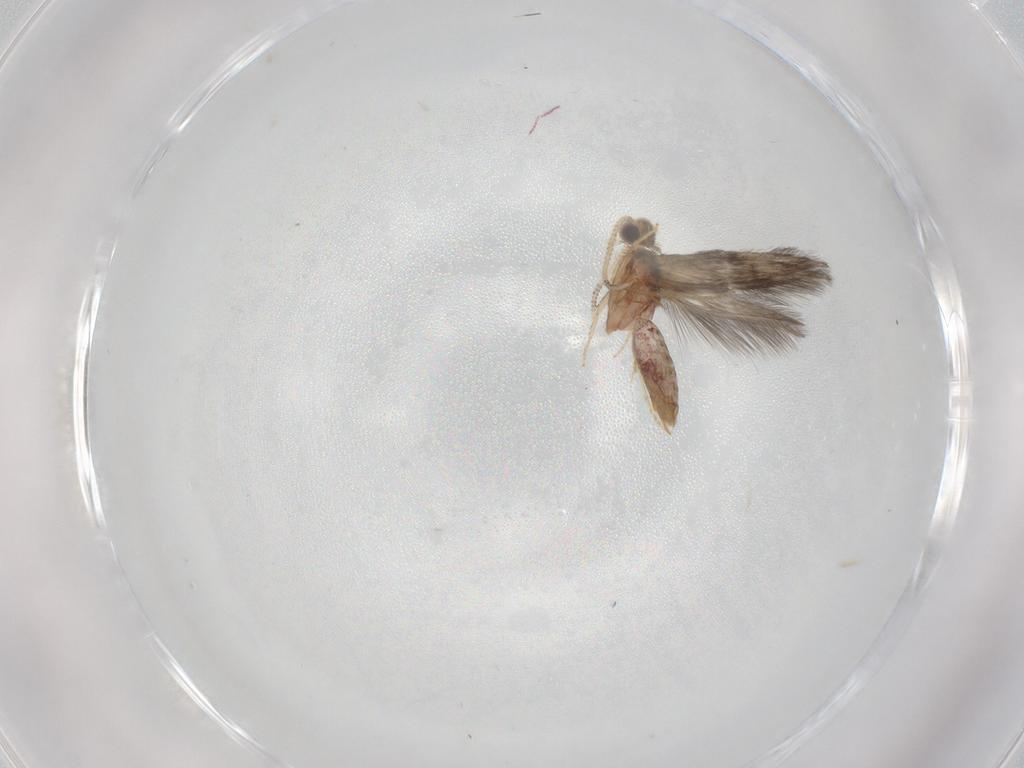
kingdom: Animalia
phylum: Arthropoda
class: Insecta
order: Trichoptera
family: Hydroptilidae
